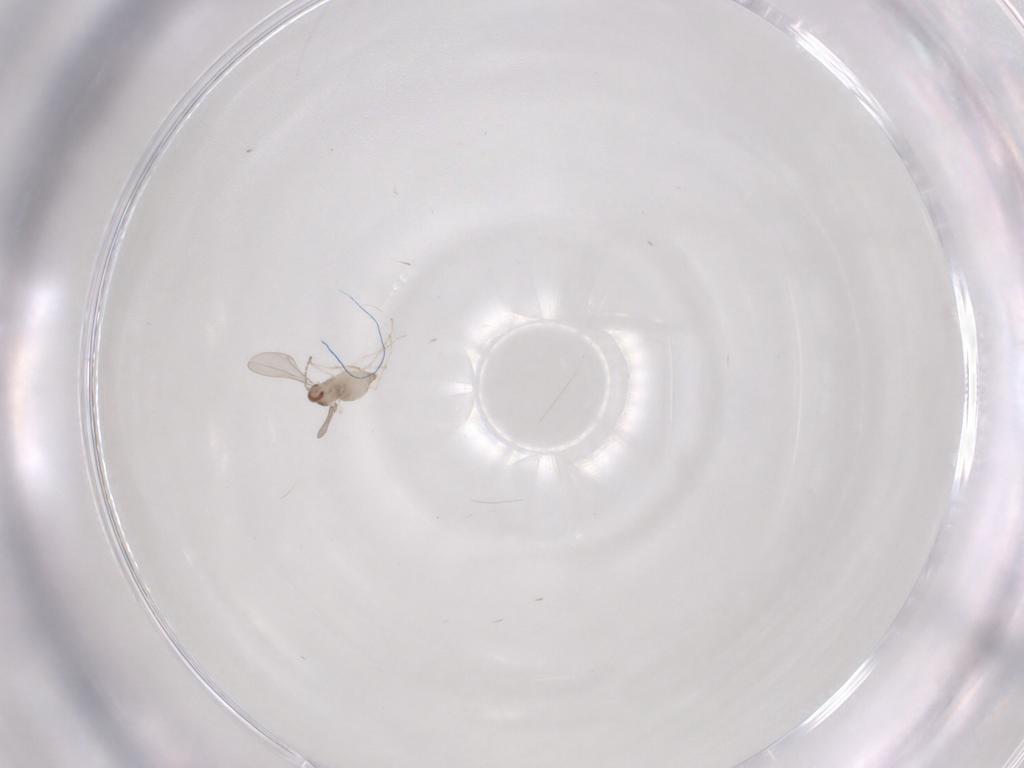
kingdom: Animalia
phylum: Arthropoda
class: Insecta
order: Diptera
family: Cecidomyiidae
